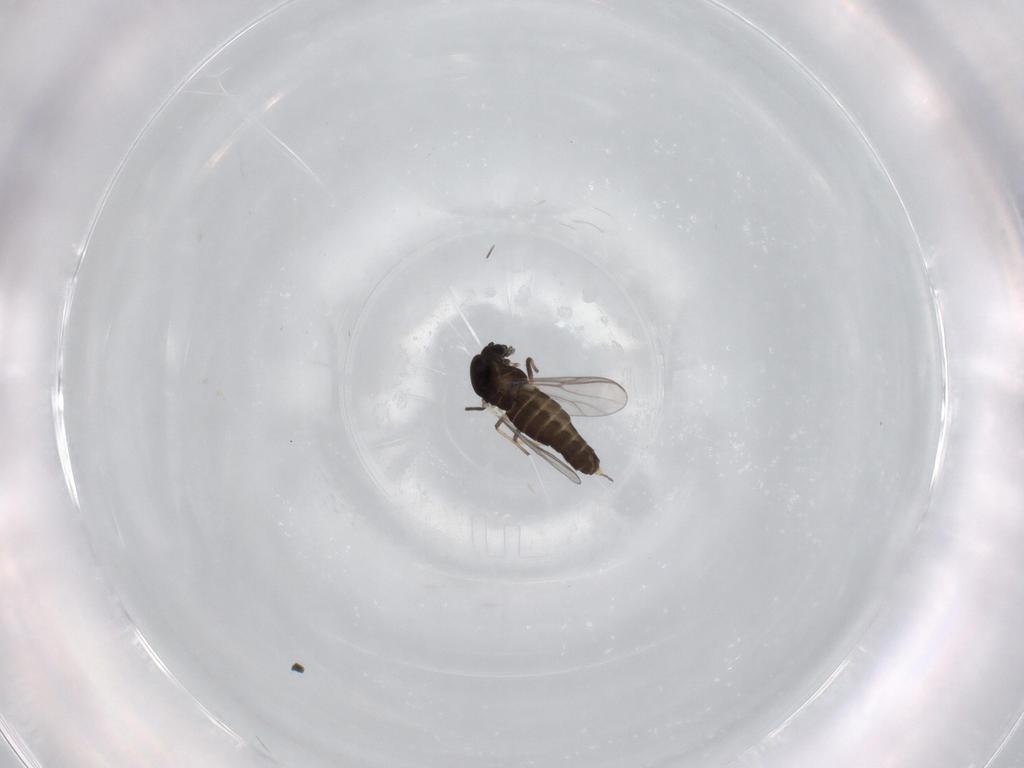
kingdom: Animalia
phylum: Arthropoda
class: Insecta
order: Diptera
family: Chironomidae
